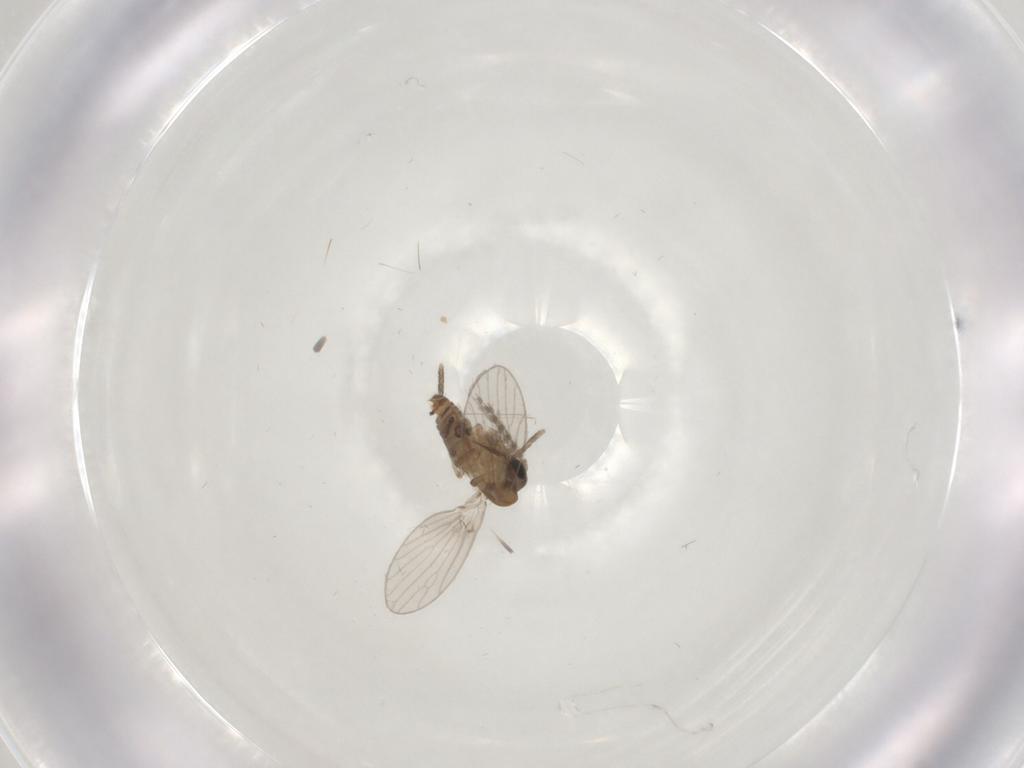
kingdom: Animalia
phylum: Arthropoda
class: Insecta
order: Diptera
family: Psychodidae
